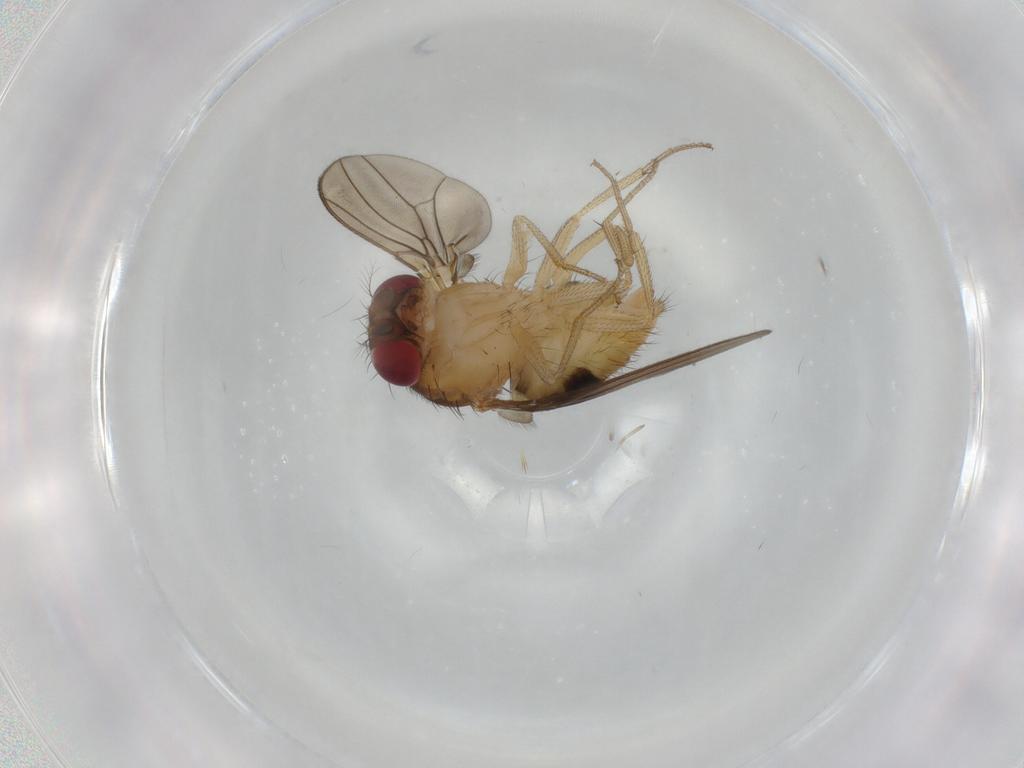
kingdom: Animalia
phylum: Arthropoda
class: Insecta
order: Diptera
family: Drosophilidae
